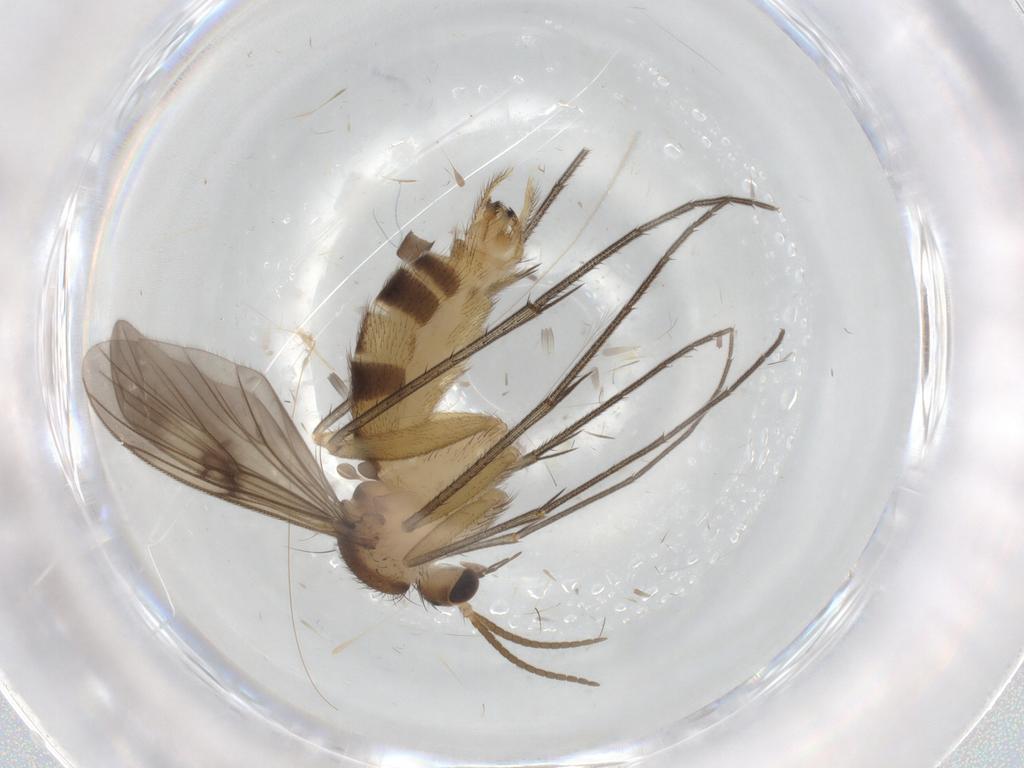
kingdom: Animalia
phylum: Arthropoda
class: Insecta
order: Diptera
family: Mycetophilidae
